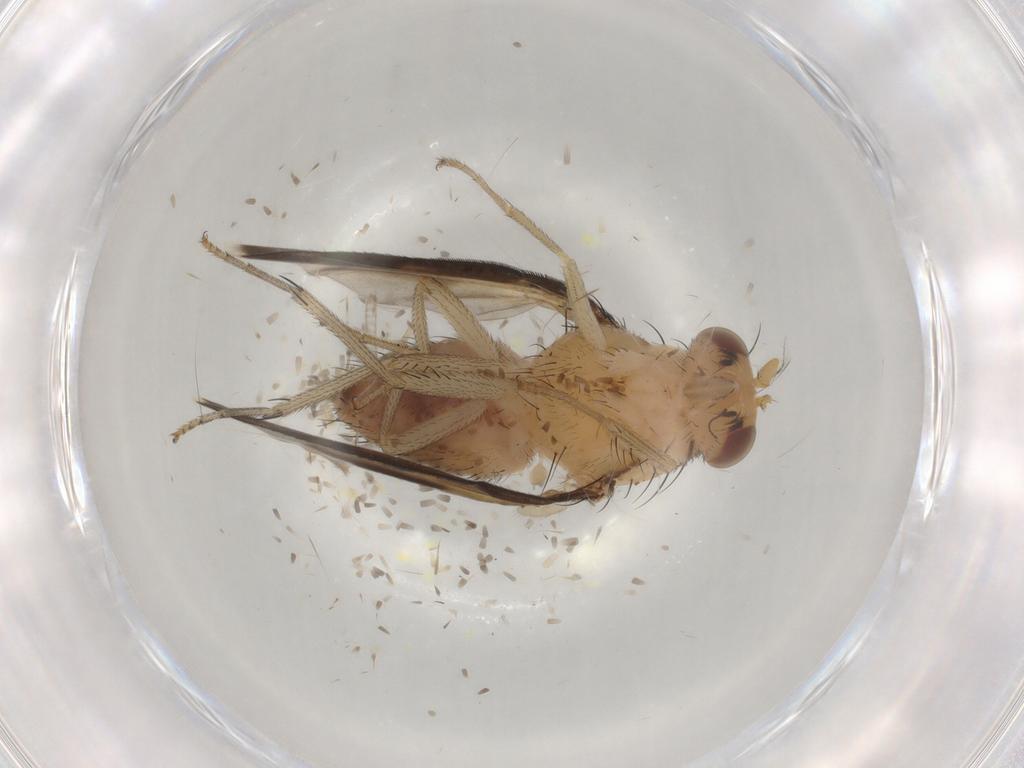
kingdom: Animalia
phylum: Arthropoda
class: Insecta
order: Diptera
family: Psychodidae
